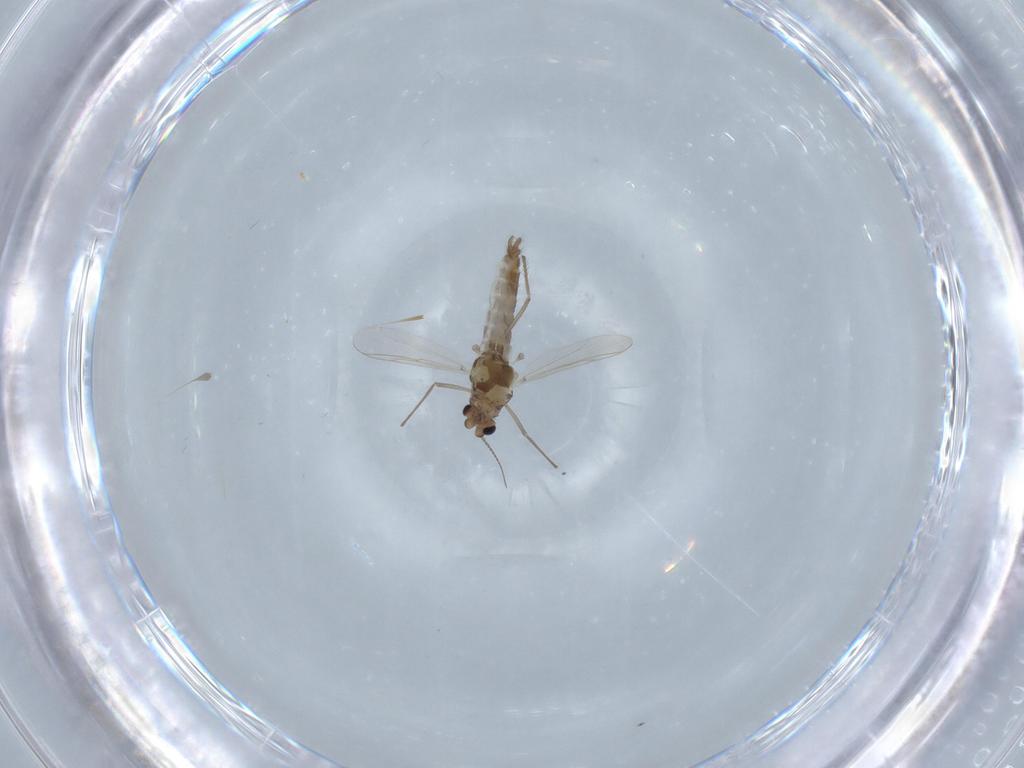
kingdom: Animalia
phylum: Arthropoda
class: Insecta
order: Diptera
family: Chironomidae
